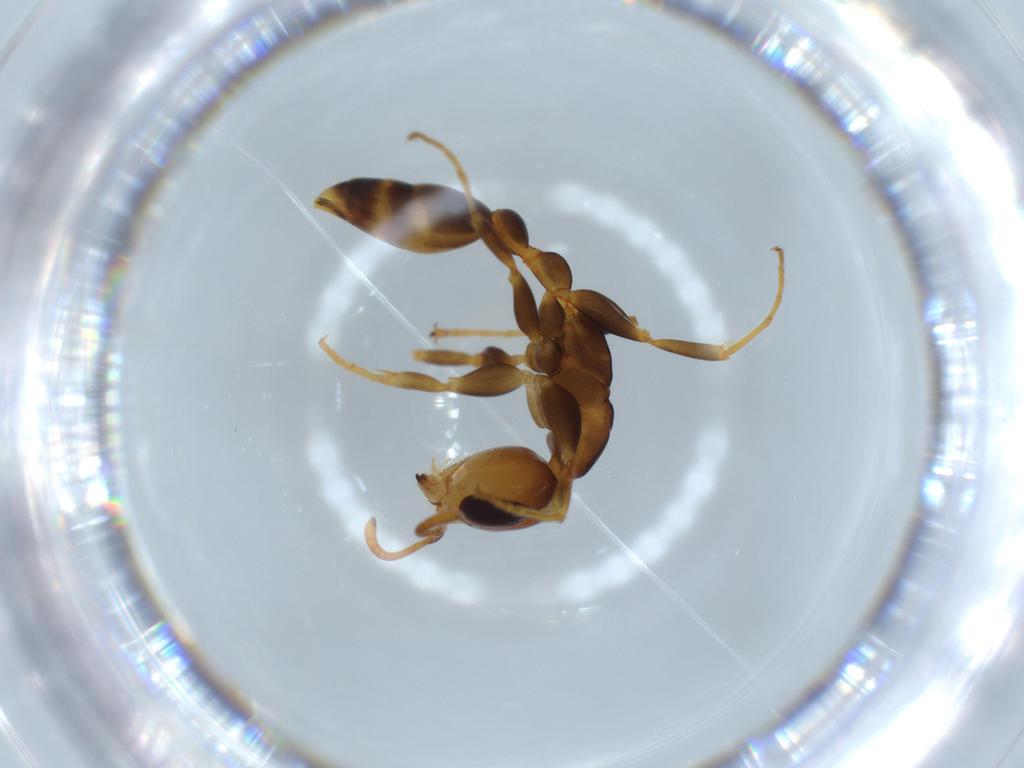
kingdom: Animalia
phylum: Arthropoda
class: Insecta
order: Hymenoptera
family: Formicidae
